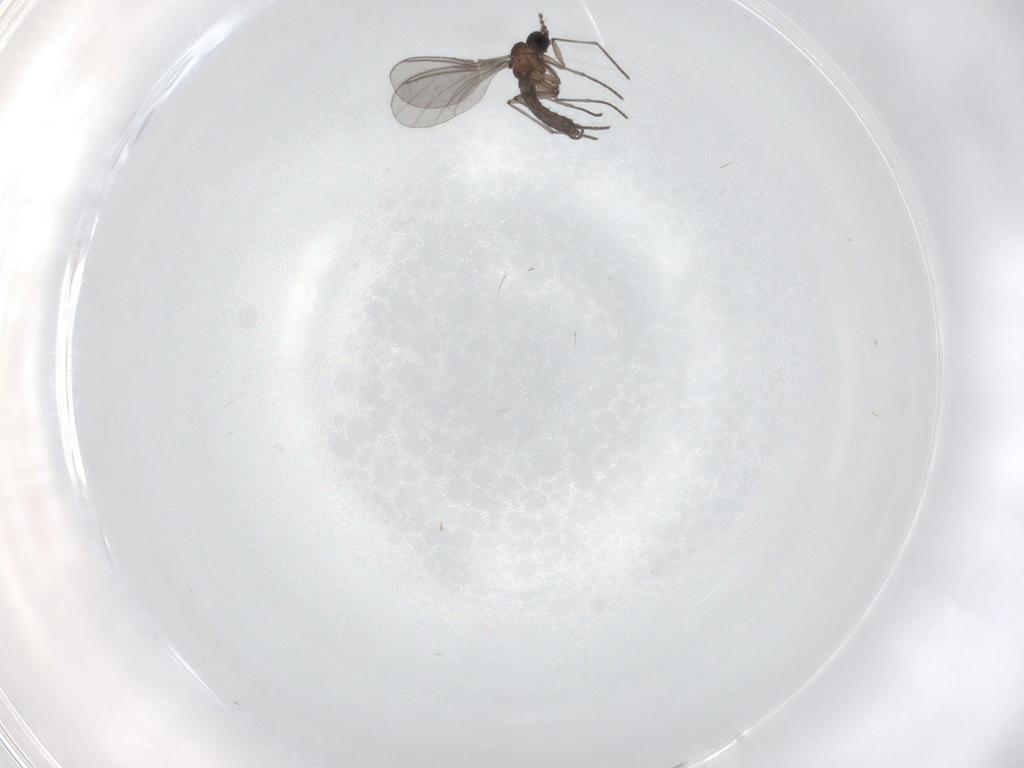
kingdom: Animalia
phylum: Arthropoda
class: Insecta
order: Diptera
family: Sciaridae
